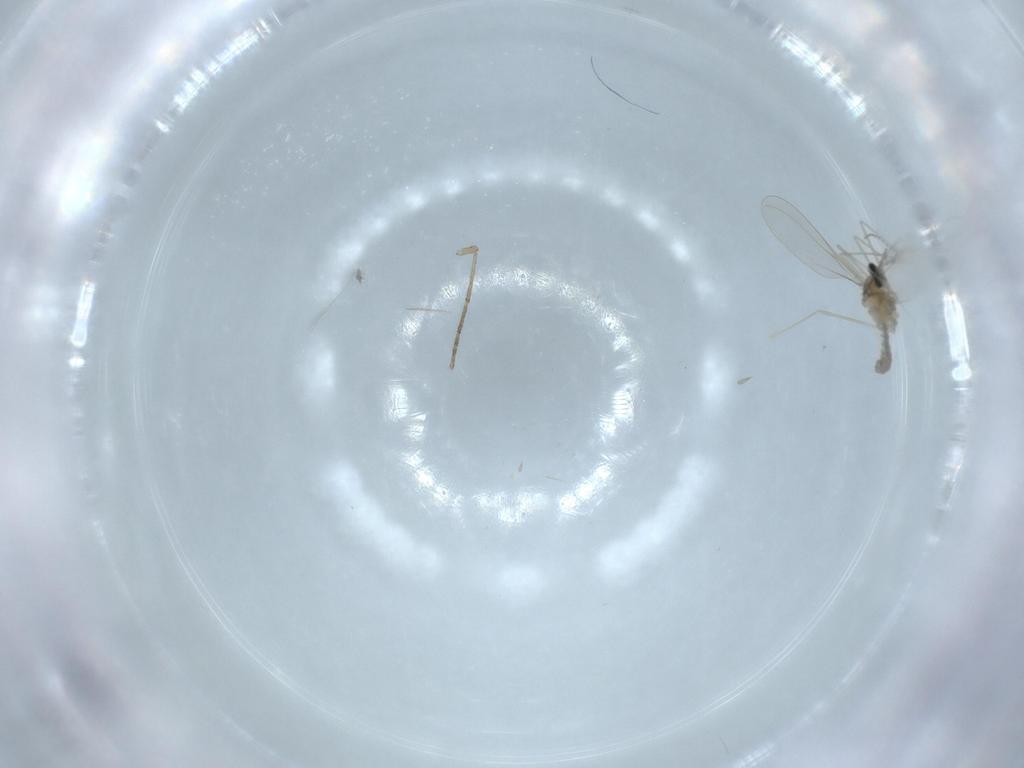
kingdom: Animalia
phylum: Arthropoda
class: Insecta
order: Diptera
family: Psychodidae
